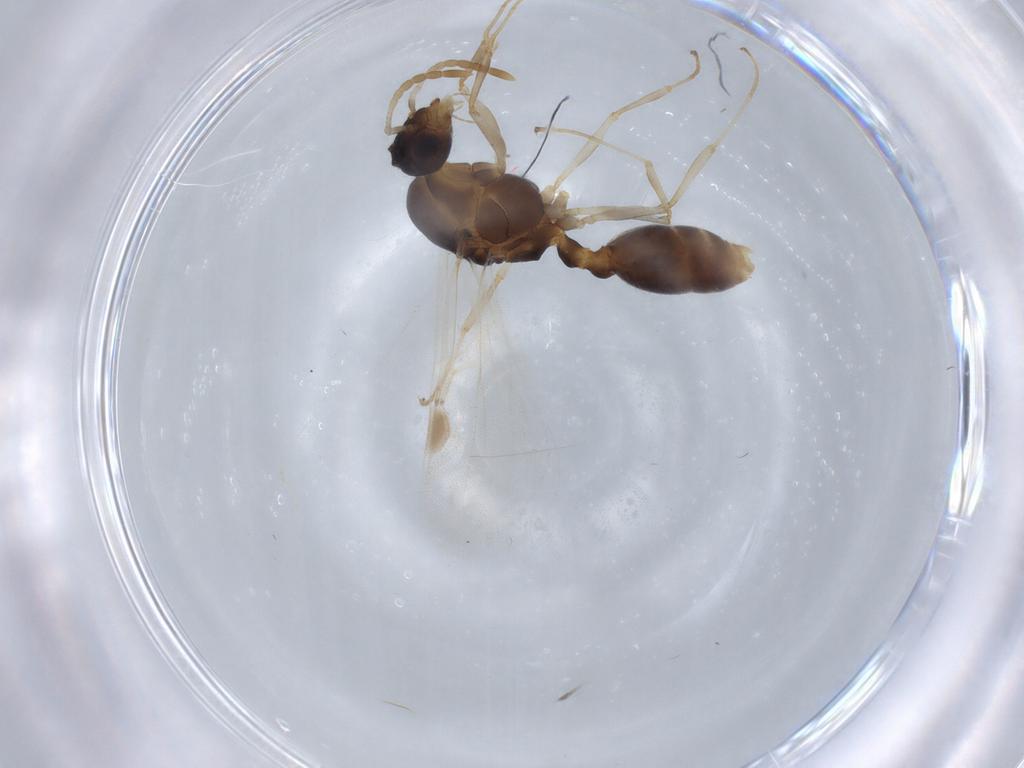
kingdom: Animalia
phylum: Arthropoda
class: Insecta
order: Hymenoptera
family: Formicidae
